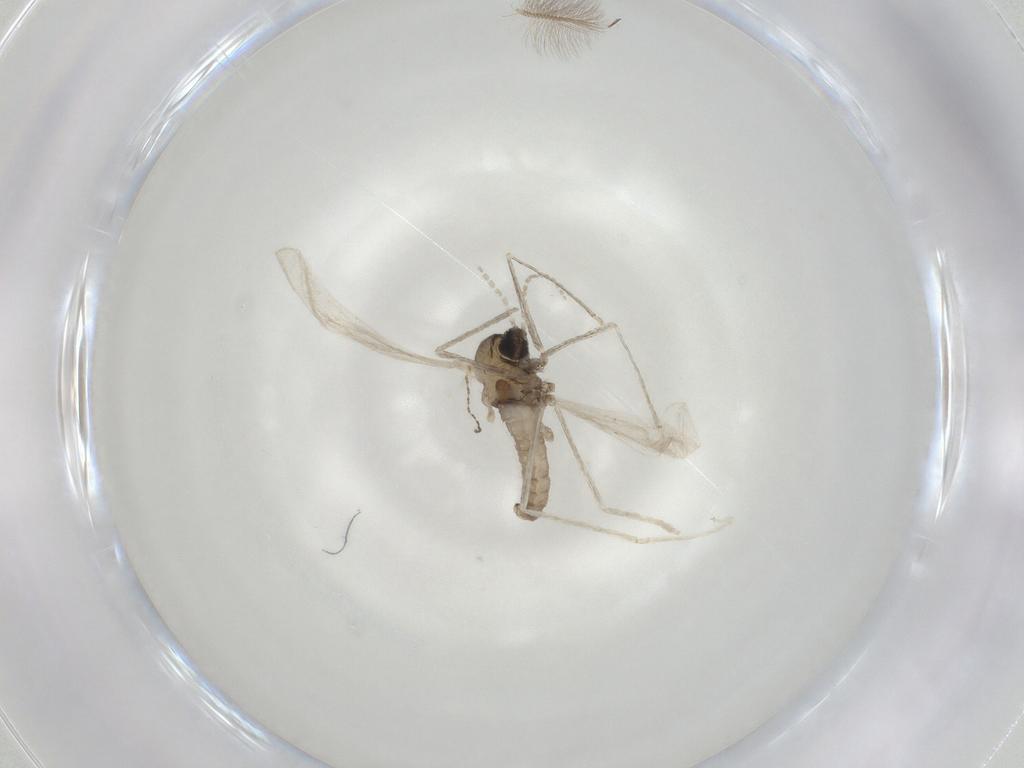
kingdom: Animalia
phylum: Arthropoda
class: Insecta
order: Diptera
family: Cecidomyiidae
